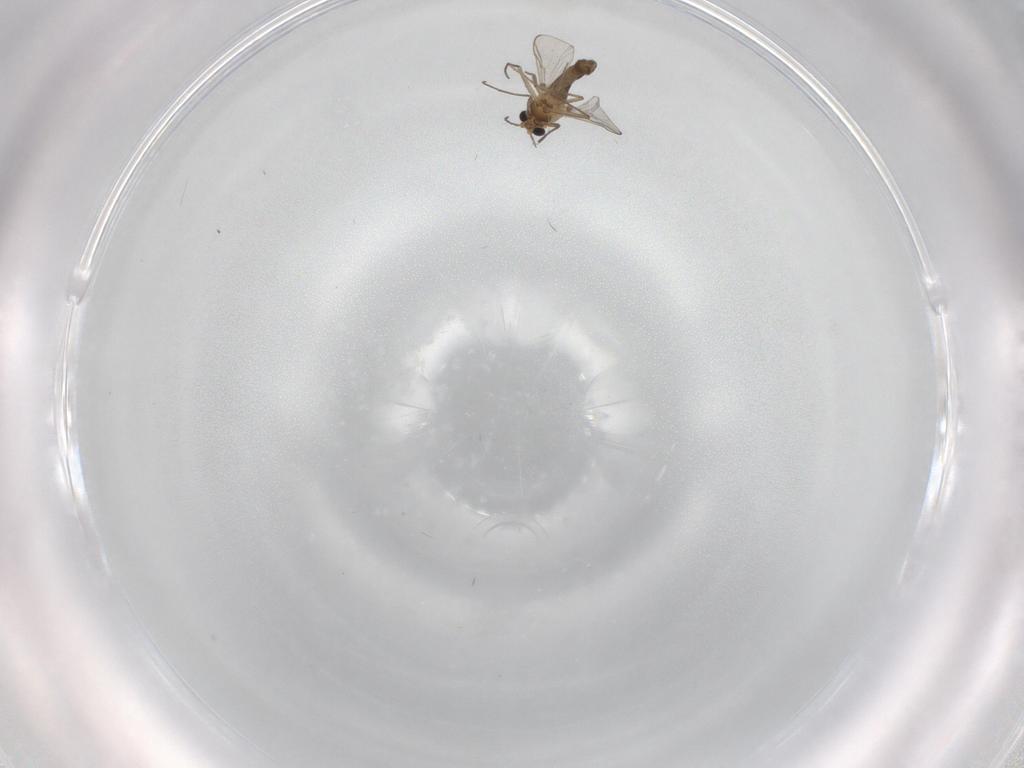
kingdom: Animalia
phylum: Arthropoda
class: Insecta
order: Diptera
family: Chironomidae
